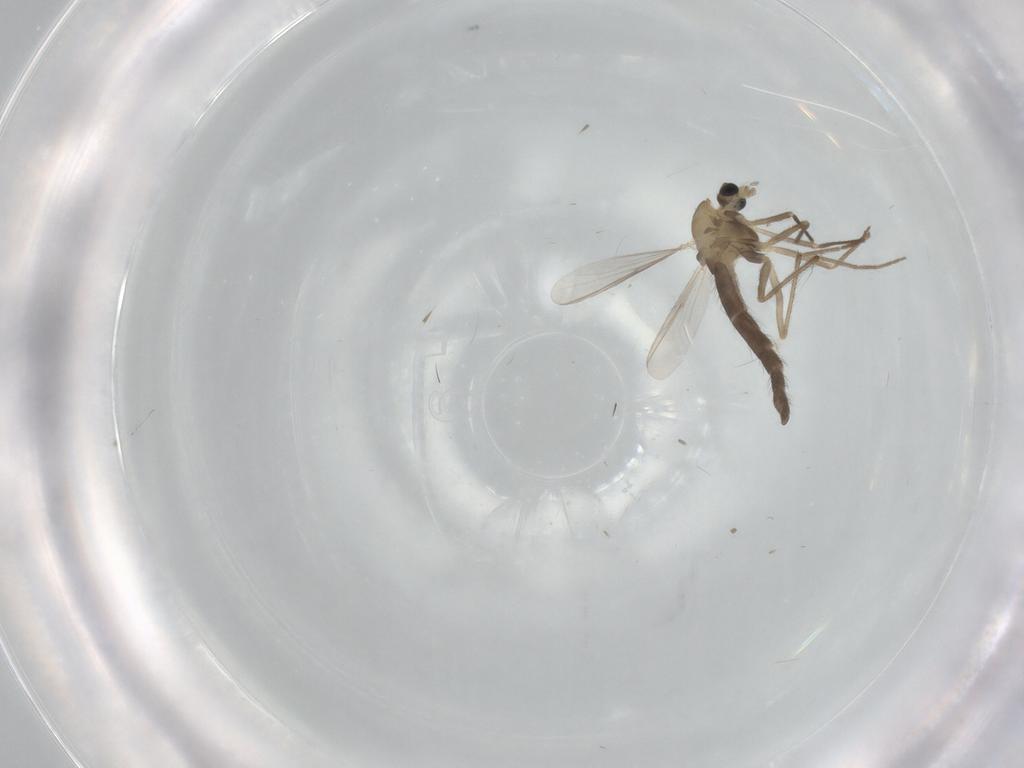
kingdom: Animalia
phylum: Arthropoda
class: Insecta
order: Diptera
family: Chironomidae
